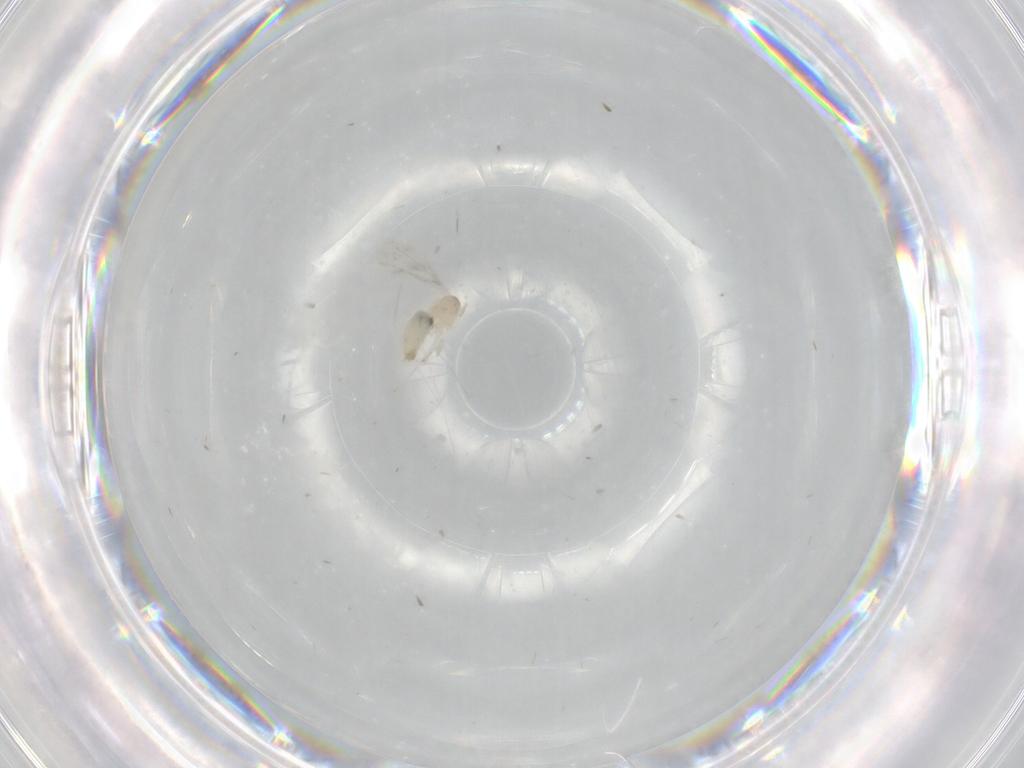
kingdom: Animalia
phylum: Arthropoda
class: Insecta
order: Diptera
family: Cecidomyiidae
